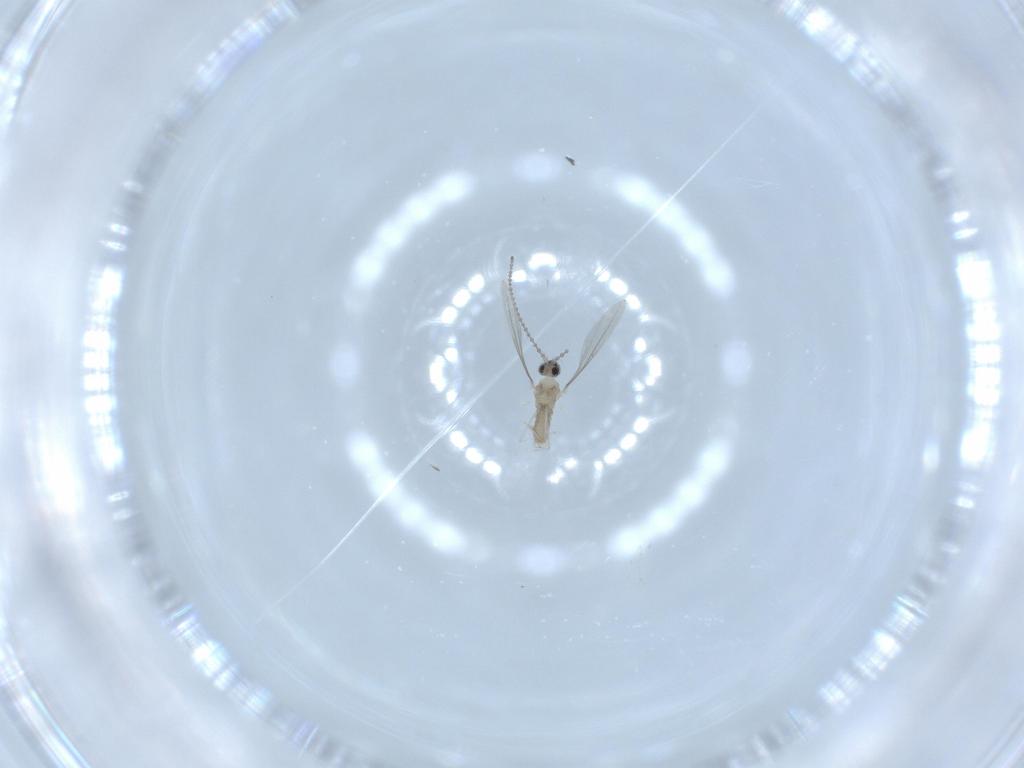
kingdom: Animalia
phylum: Arthropoda
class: Insecta
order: Diptera
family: Cecidomyiidae
